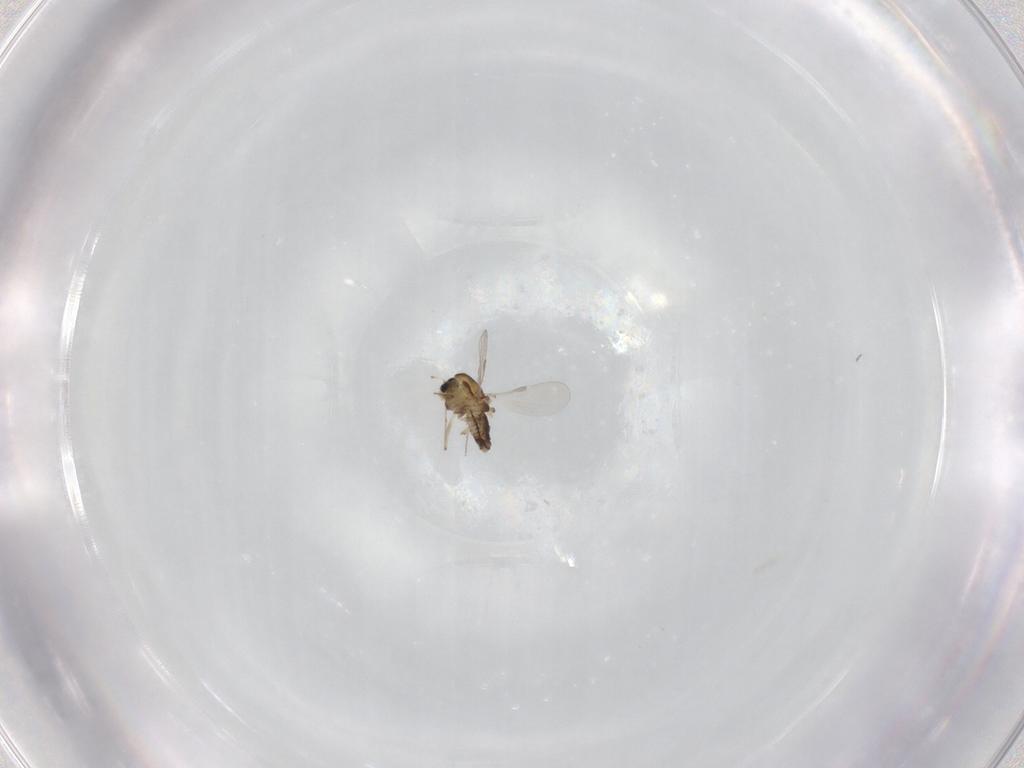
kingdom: Animalia
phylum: Arthropoda
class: Insecta
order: Diptera
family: Chironomidae
